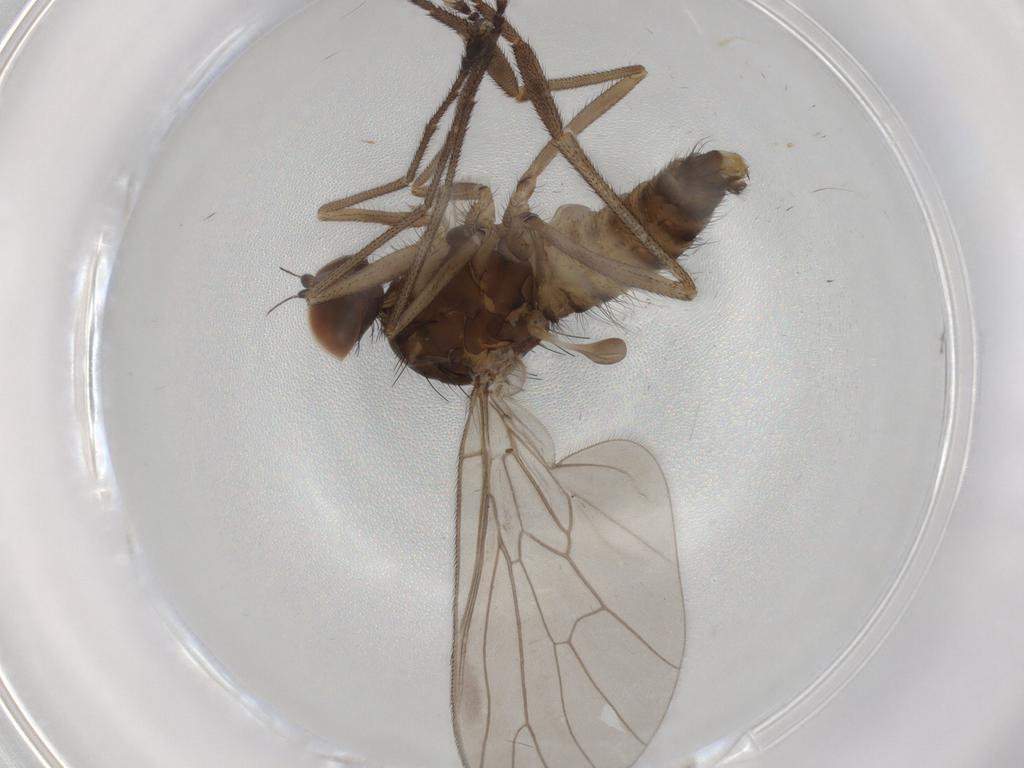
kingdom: Animalia
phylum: Arthropoda
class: Insecta
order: Diptera
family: Brachystomatidae
